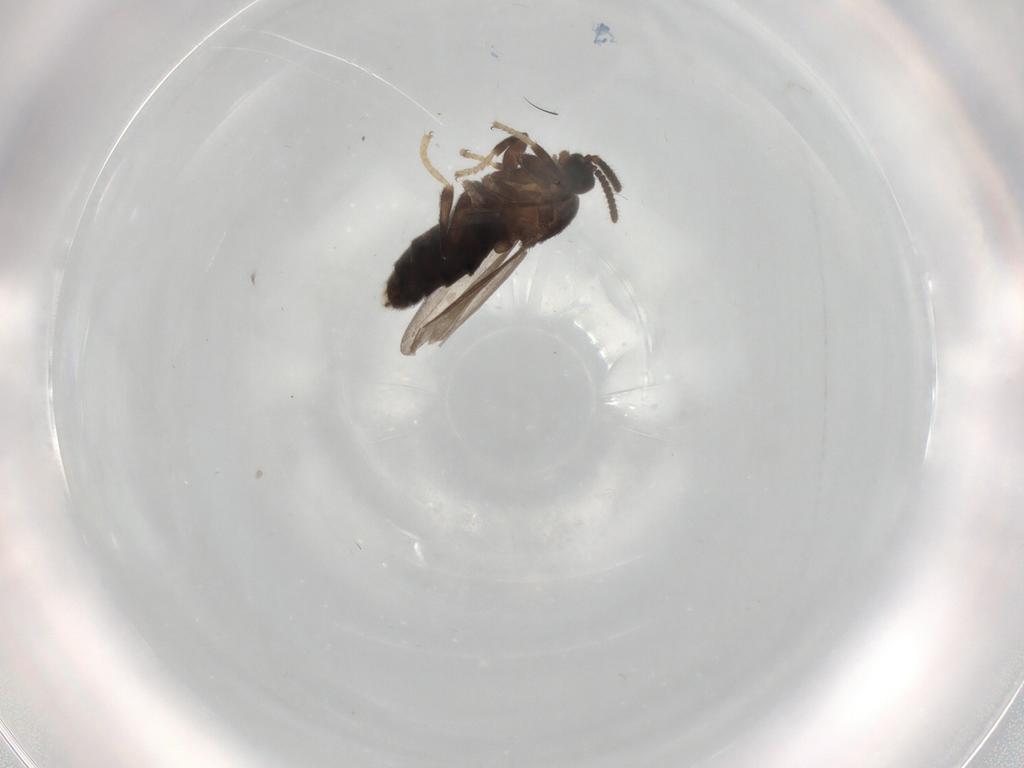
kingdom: Animalia
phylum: Arthropoda
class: Insecta
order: Diptera
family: Scatopsidae
